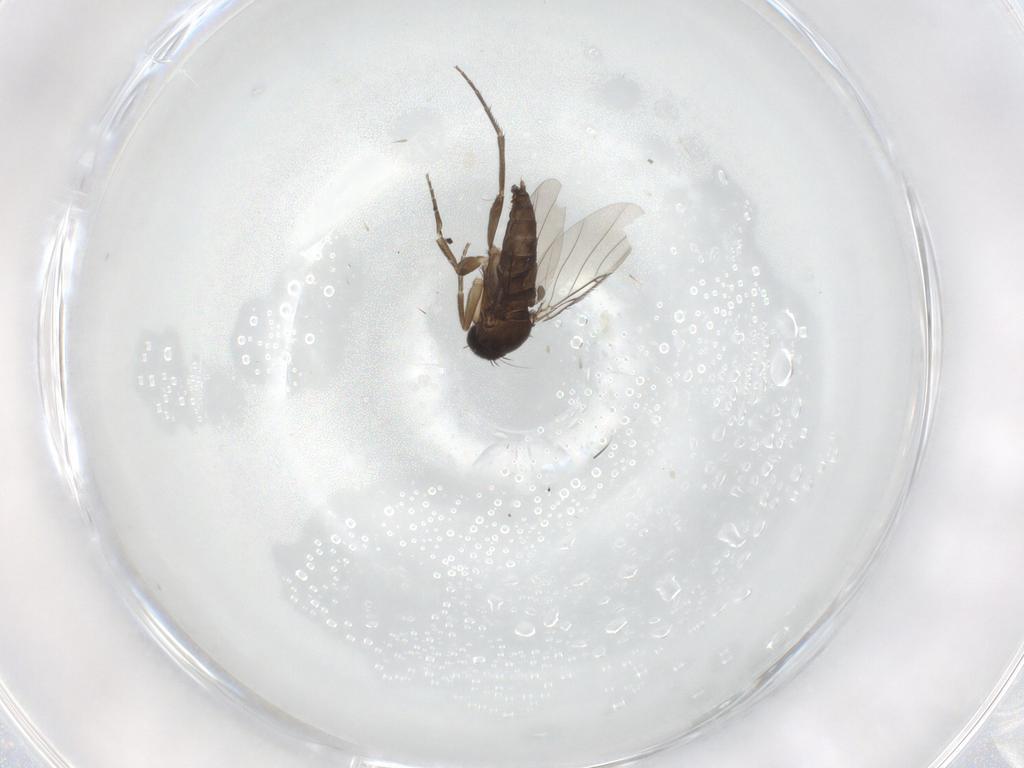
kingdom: Animalia
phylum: Arthropoda
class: Insecta
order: Diptera
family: Phoridae
